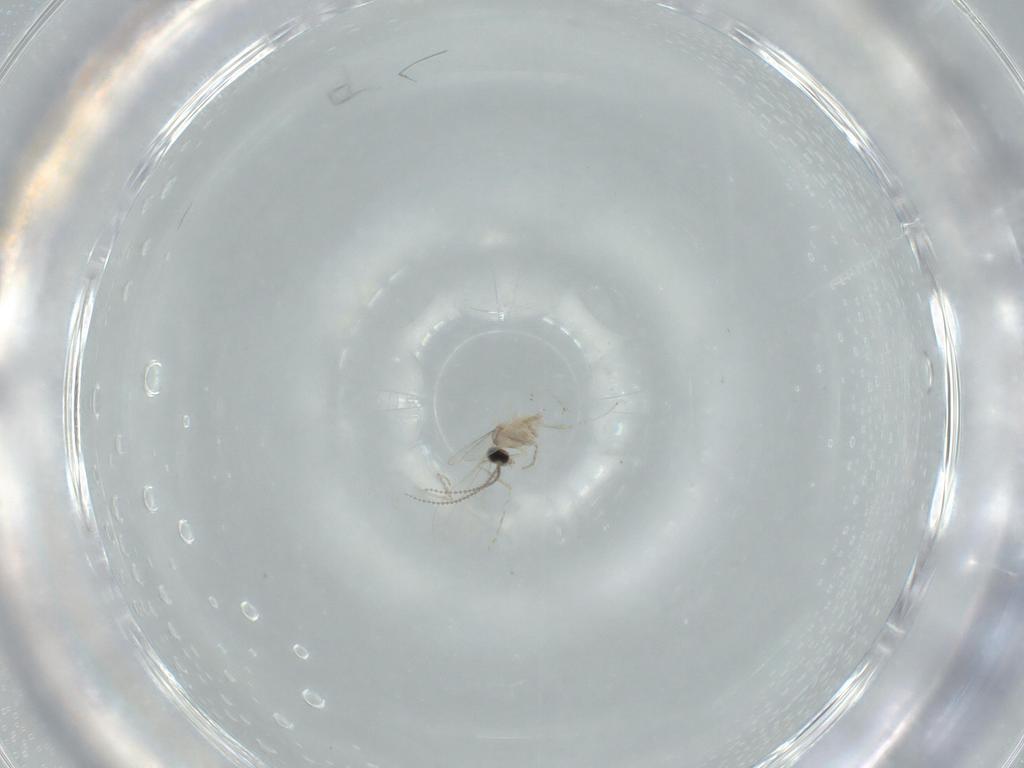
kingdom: Animalia
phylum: Arthropoda
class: Insecta
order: Diptera
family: Cecidomyiidae
